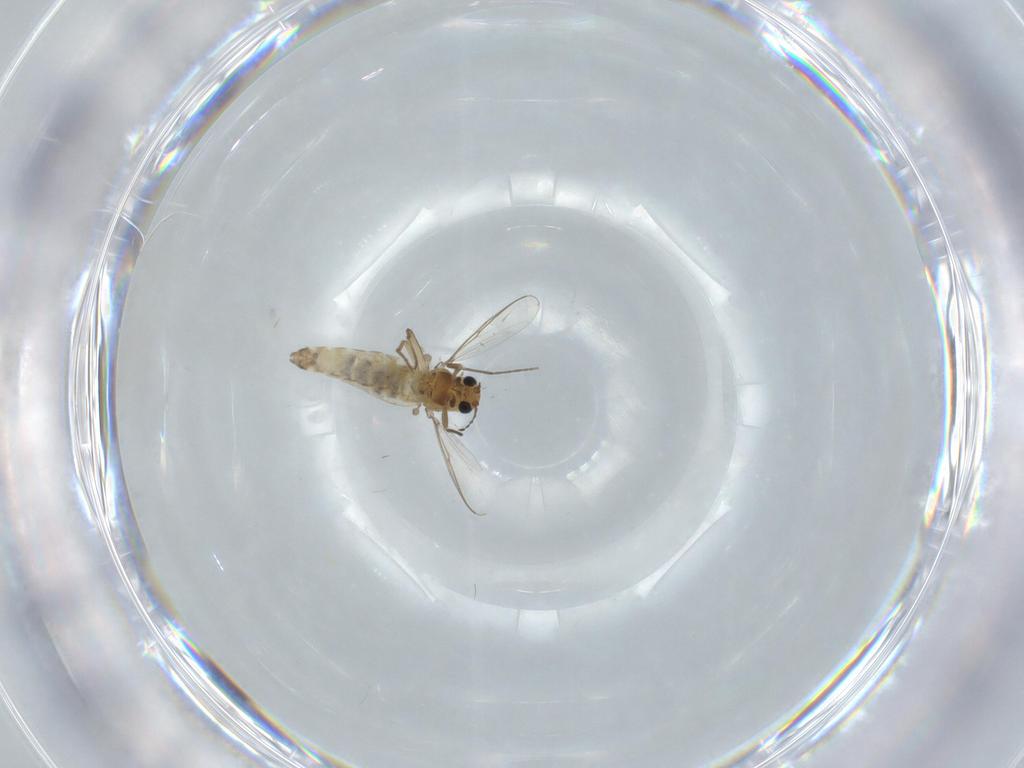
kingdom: Animalia
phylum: Arthropoda
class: Insecta
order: Diptera
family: Chironomidae
